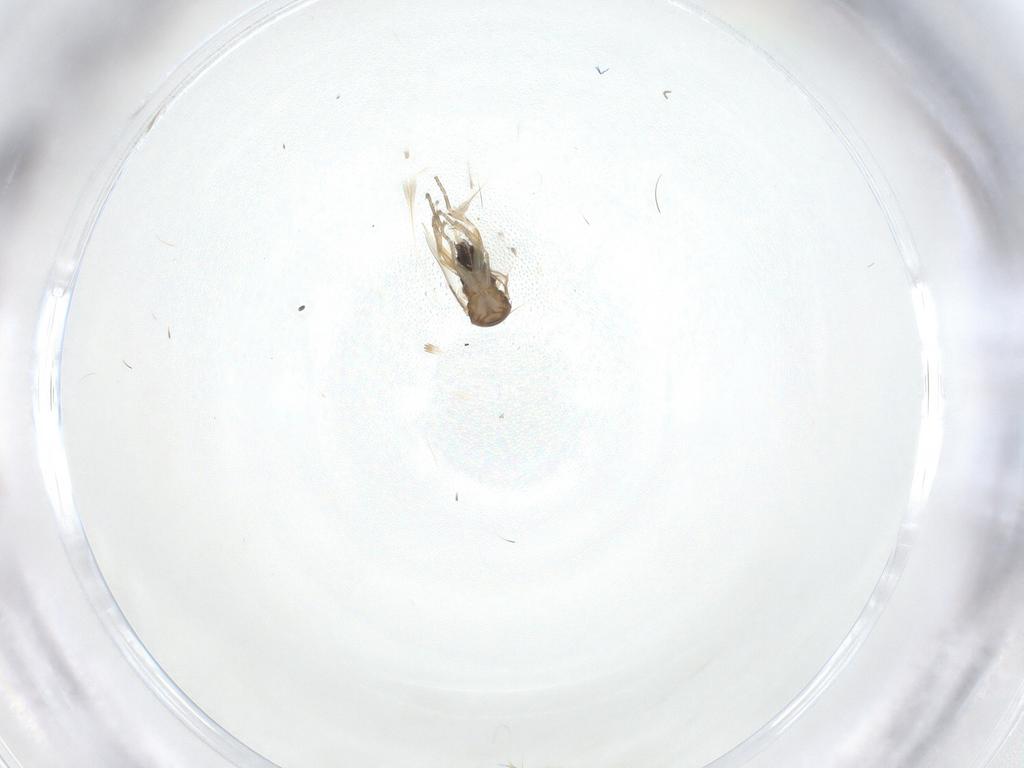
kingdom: Animalia
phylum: Arthropoda
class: Insecta
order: Diptera
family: Cecidomyiidae
